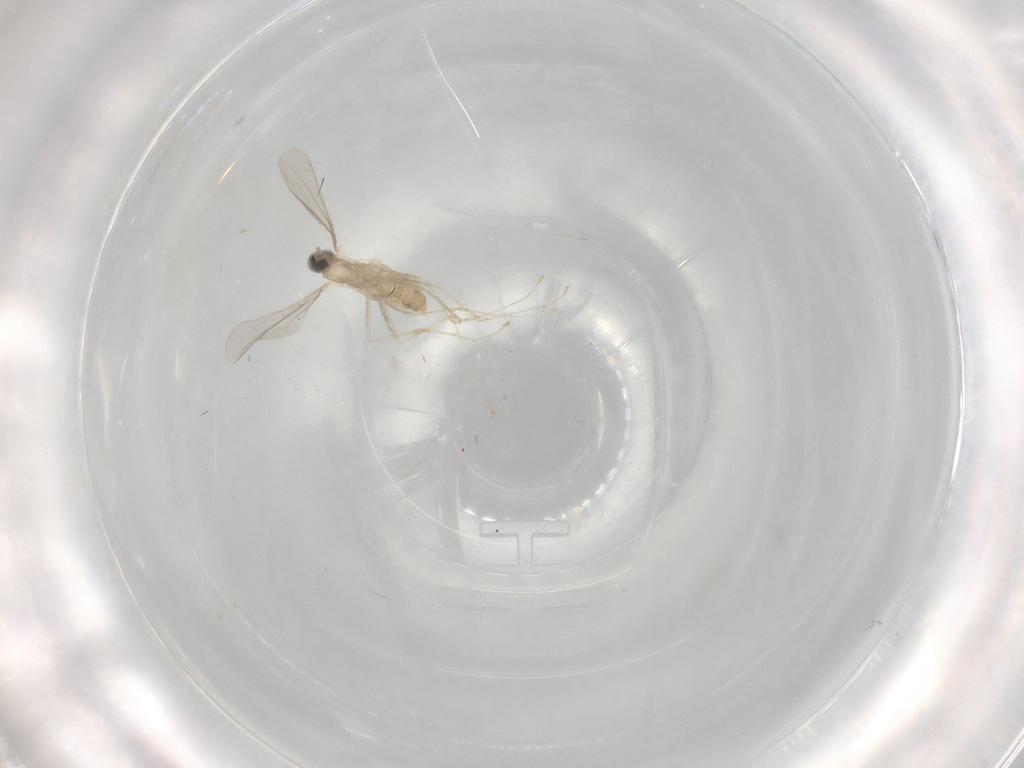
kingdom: Animalia
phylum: Arthropoda
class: Insecta
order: Diptera
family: Cecidomyiidae
